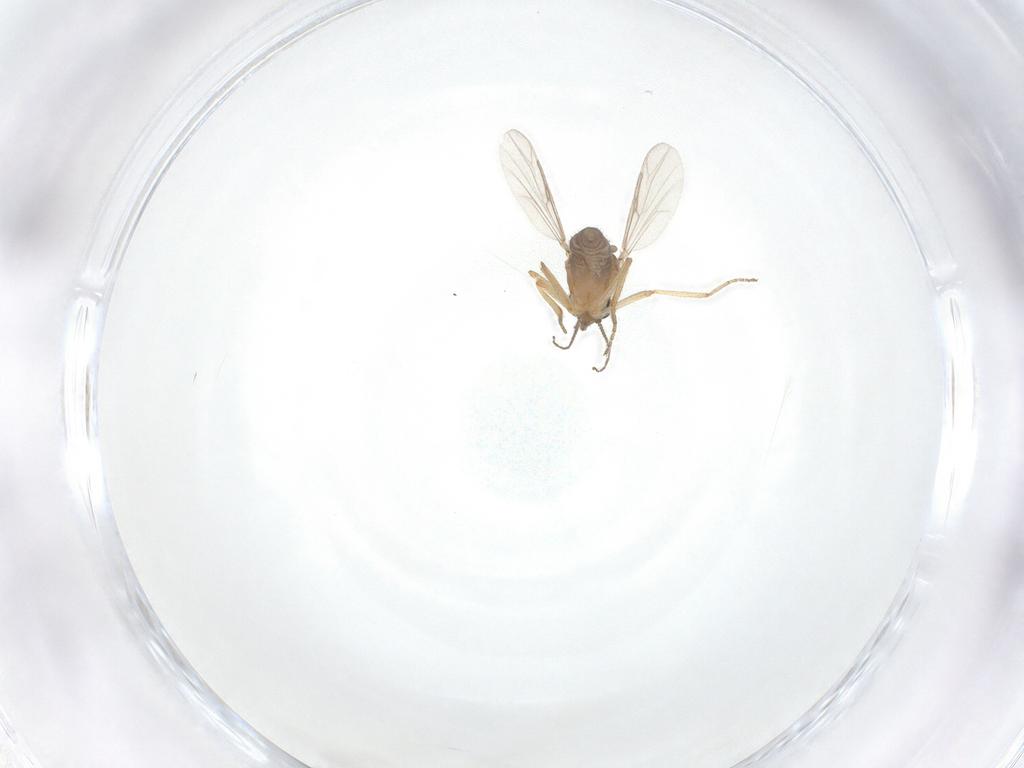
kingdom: Animalia
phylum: Arthropoda
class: Insecta
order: Diptera
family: Ceratopogonidae
